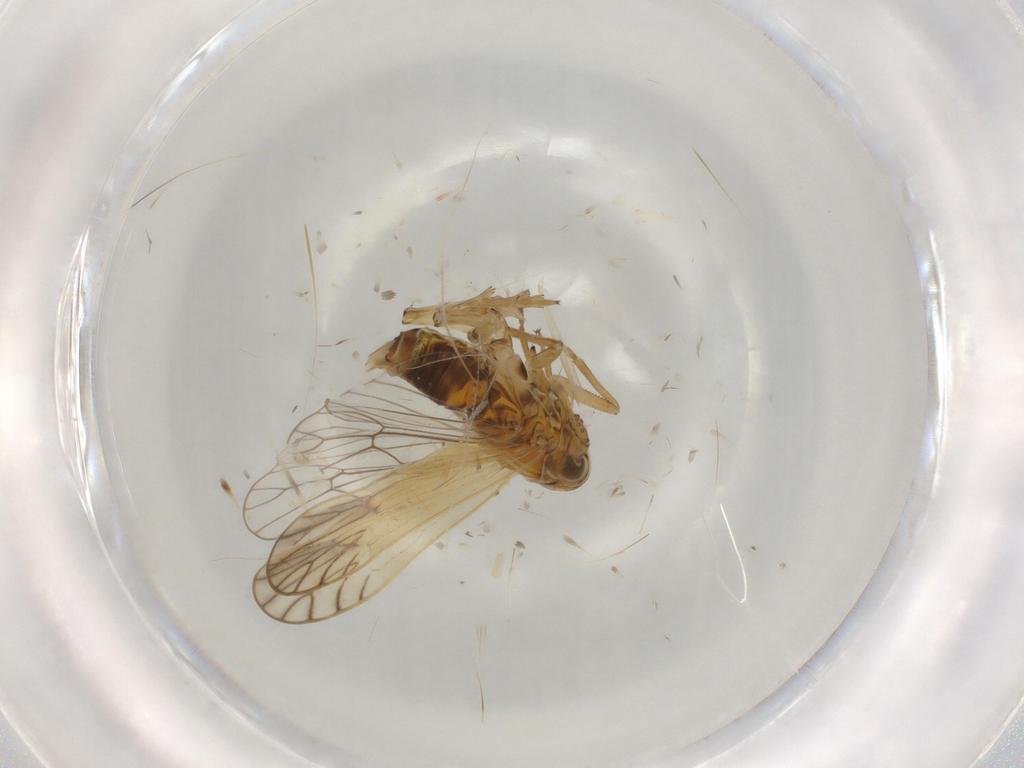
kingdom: Animalia
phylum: Arthropoda
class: Insecta
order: Hemiptera
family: Delphacidae
